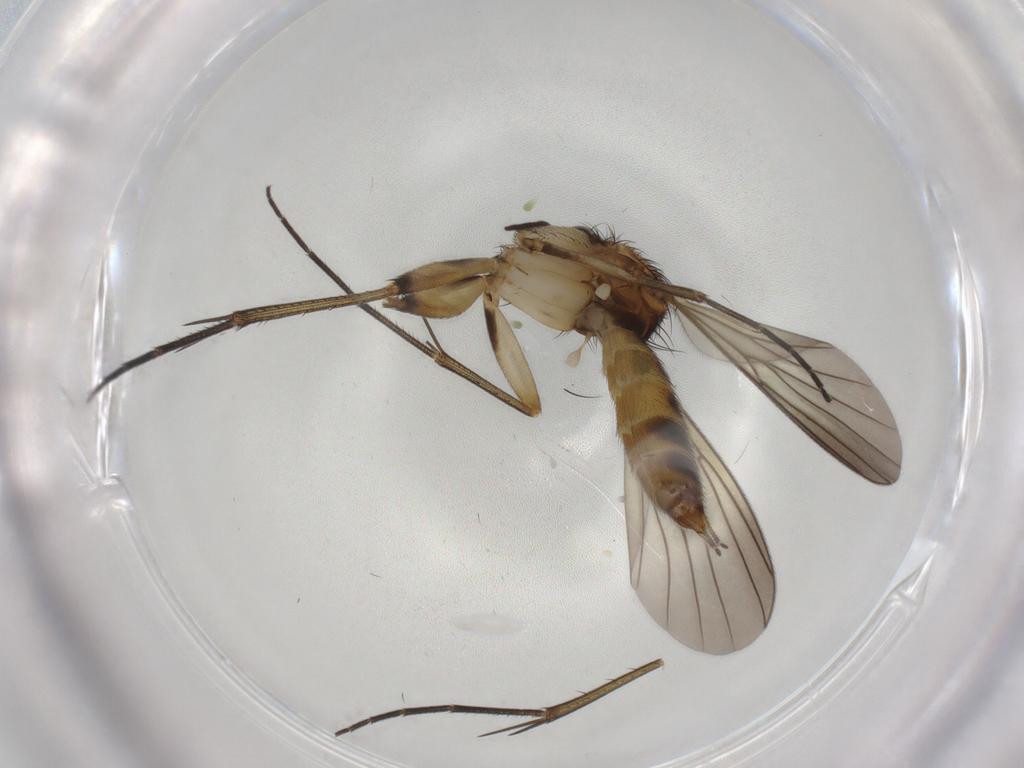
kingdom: Animalia
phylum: Arthropoda
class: Insecta
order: Diptera
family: Mycetophilidae
